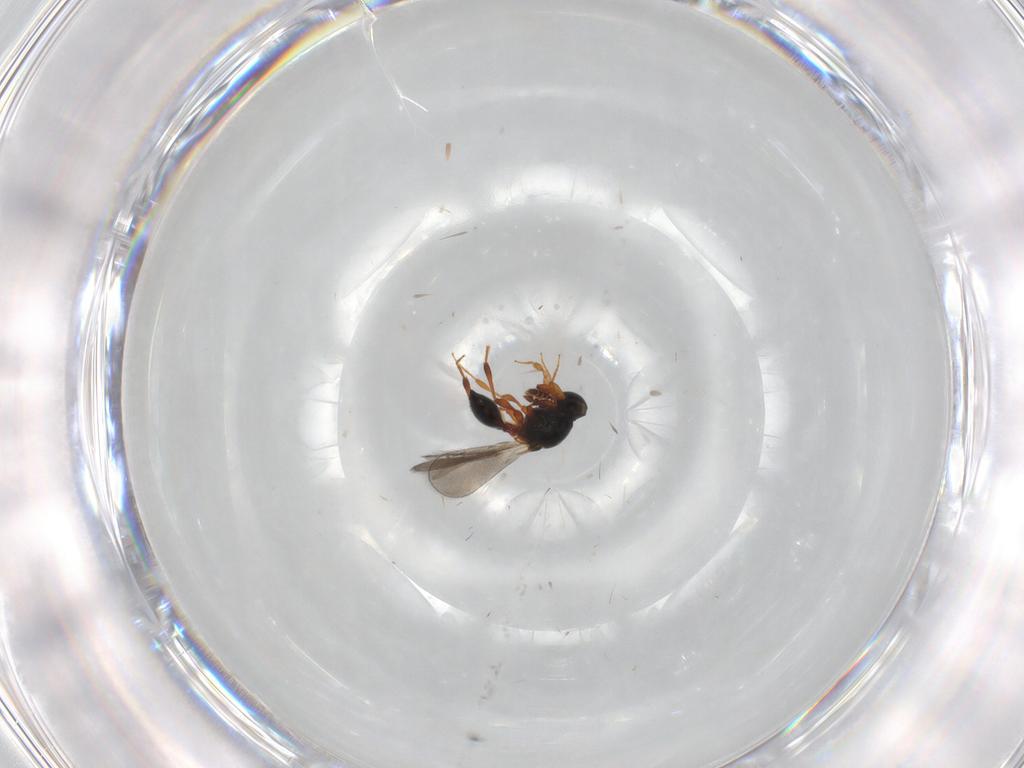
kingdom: Animalia
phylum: Arthropoda
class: Insecta
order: Hymenoptera
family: Platygastridae
